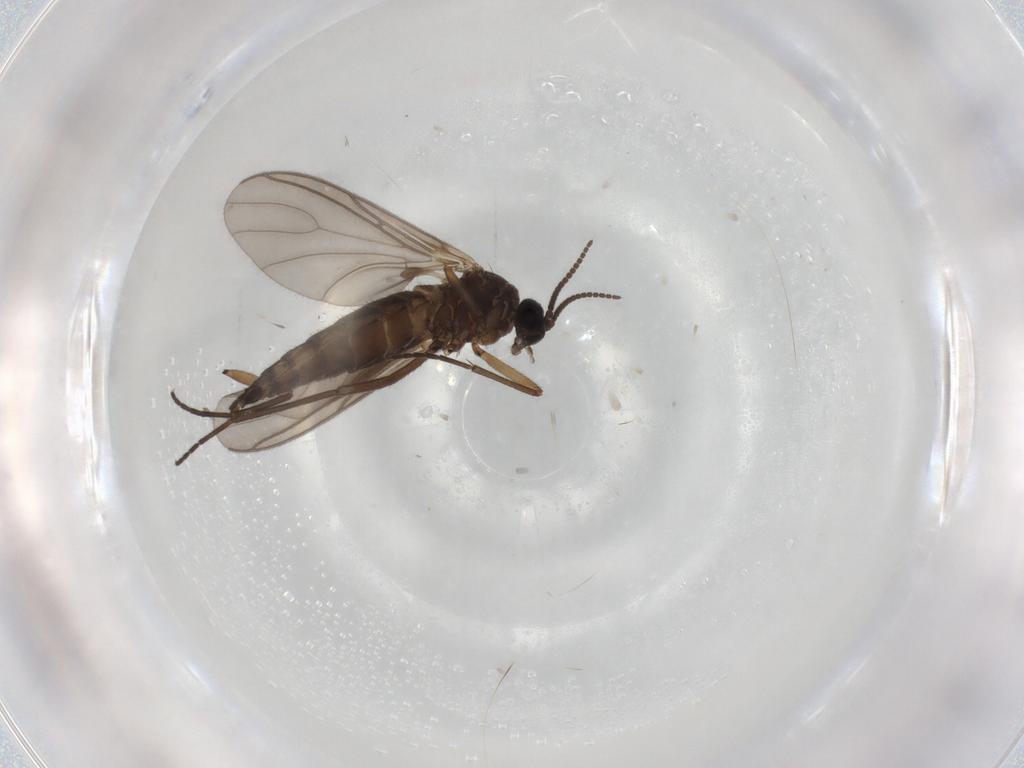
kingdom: Animalia
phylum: Arthropoda
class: Insecta
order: Diptera
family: Sciaridae
